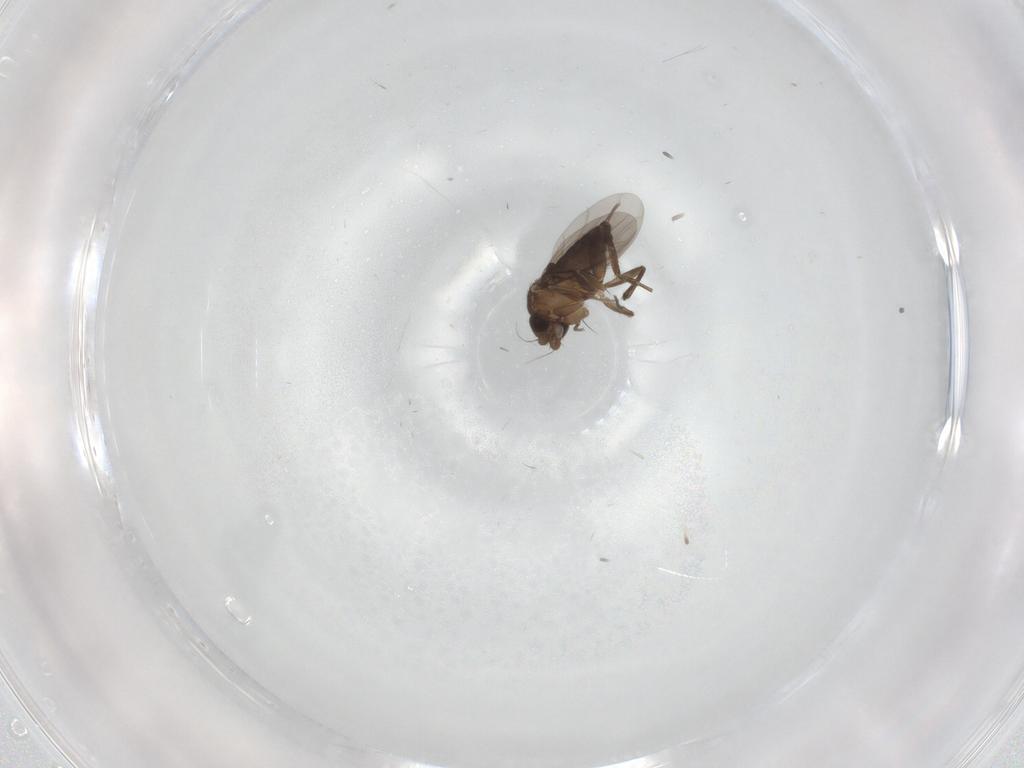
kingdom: Animalia
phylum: Arthropoda
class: Insecta
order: Diptera
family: Phoridae
